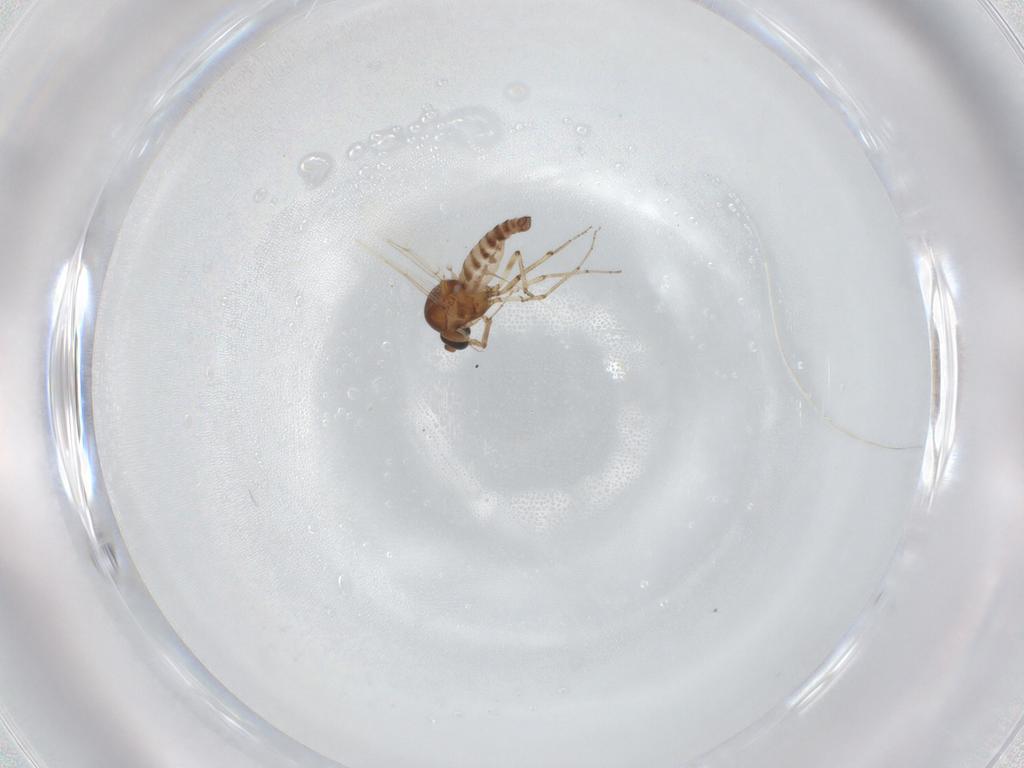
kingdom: Animalia
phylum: Arthropoda
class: Insecta
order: Diptera
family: Ceratopogonidae
